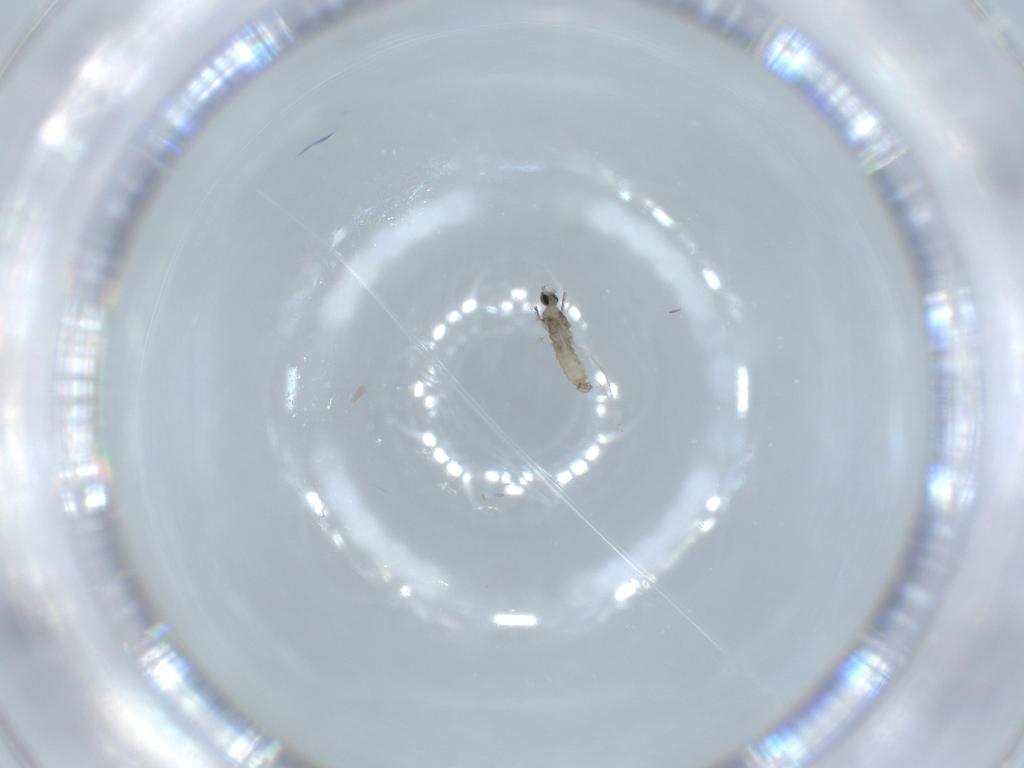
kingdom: Animalia
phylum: Arthropoda
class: Insecta
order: Diptera
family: Cecidomyiidae
